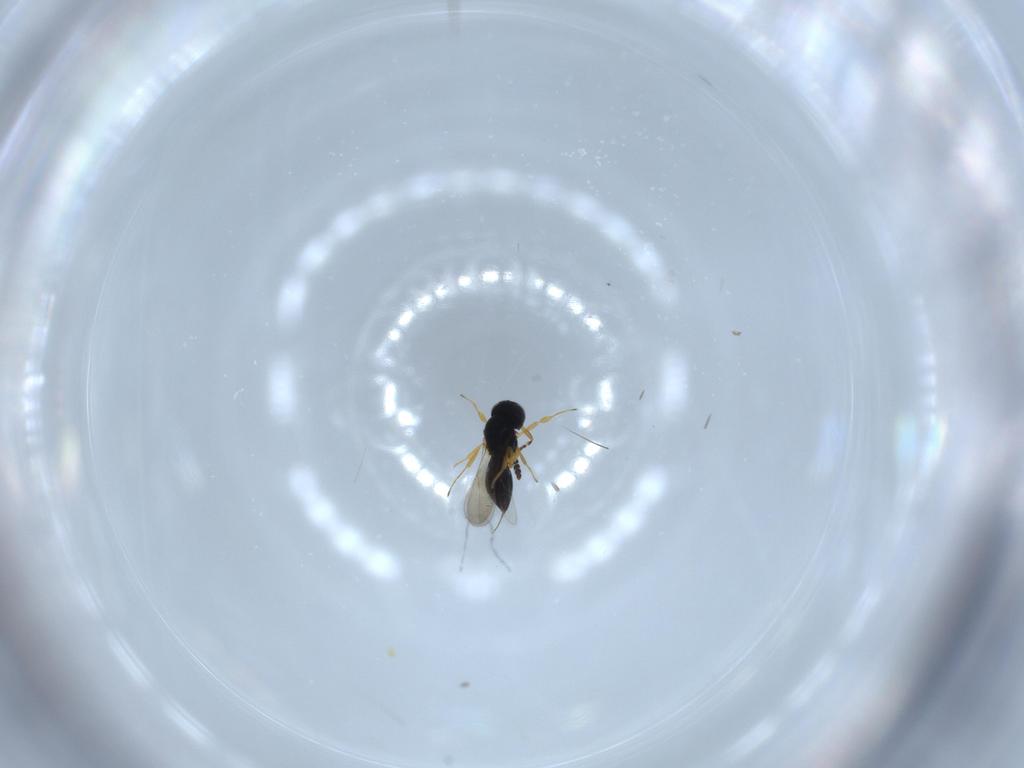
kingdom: Animalia
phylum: Arthropoda
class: Insecta
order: Hymenoptera
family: Scelionidae
